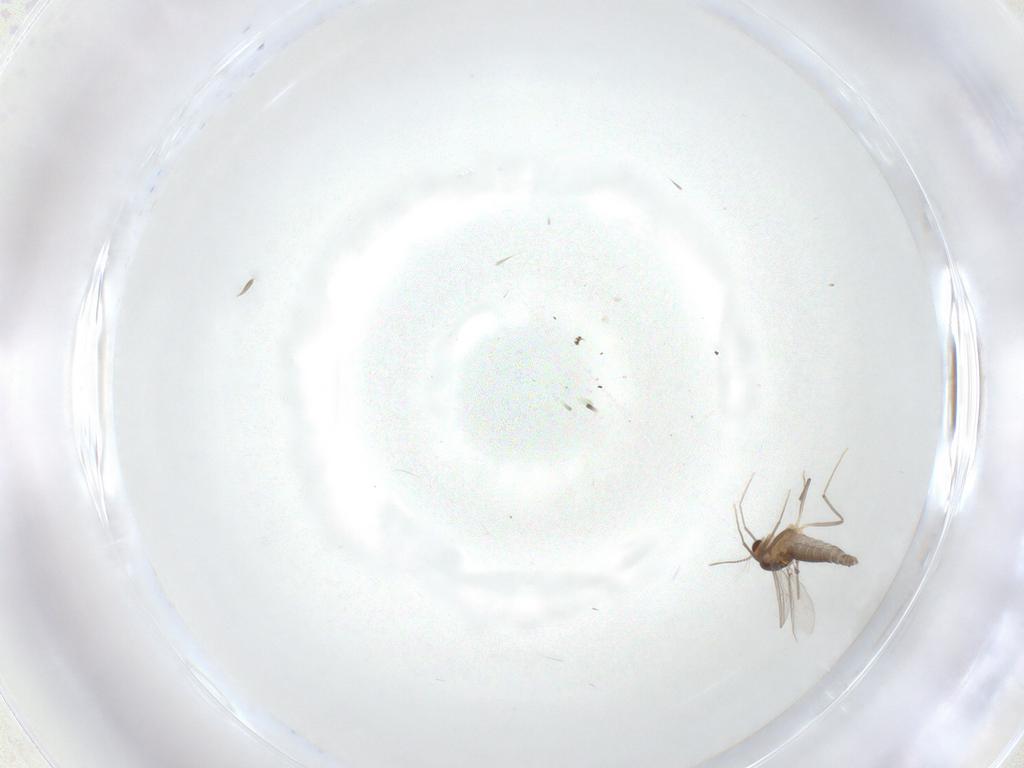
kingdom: Animalia
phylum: Arthropoda
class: Insecta
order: Diptera
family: Chironomidae
